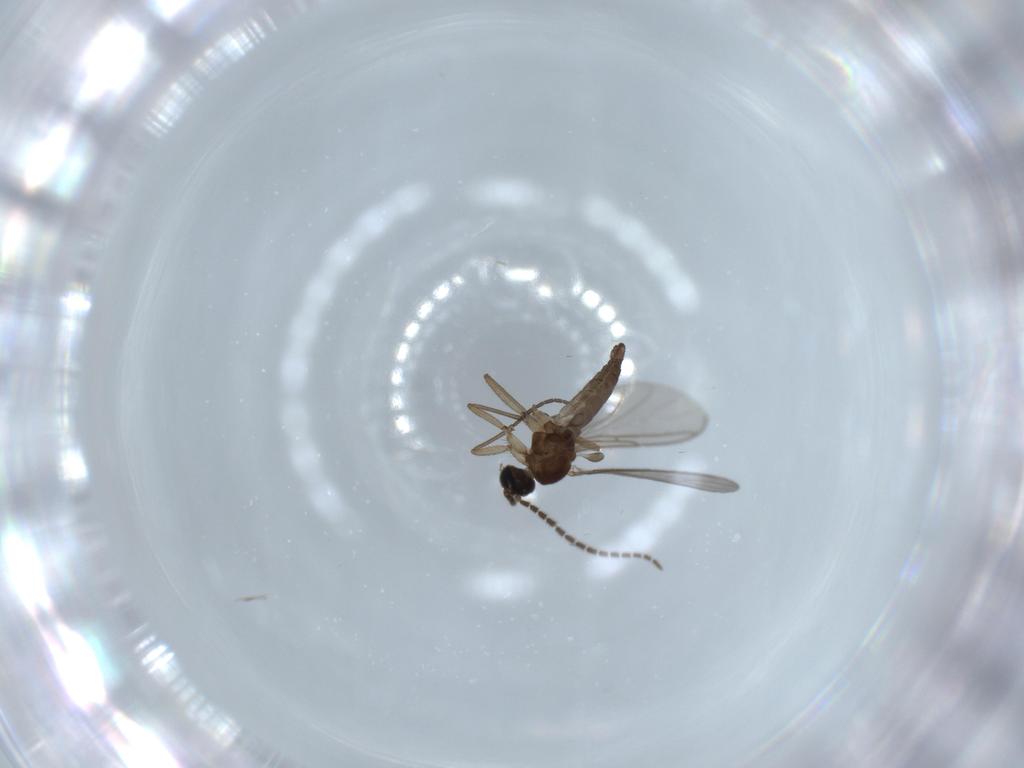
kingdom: Animalia
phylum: Arthropoda
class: Insecta
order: Diptera
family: Sciaridae
